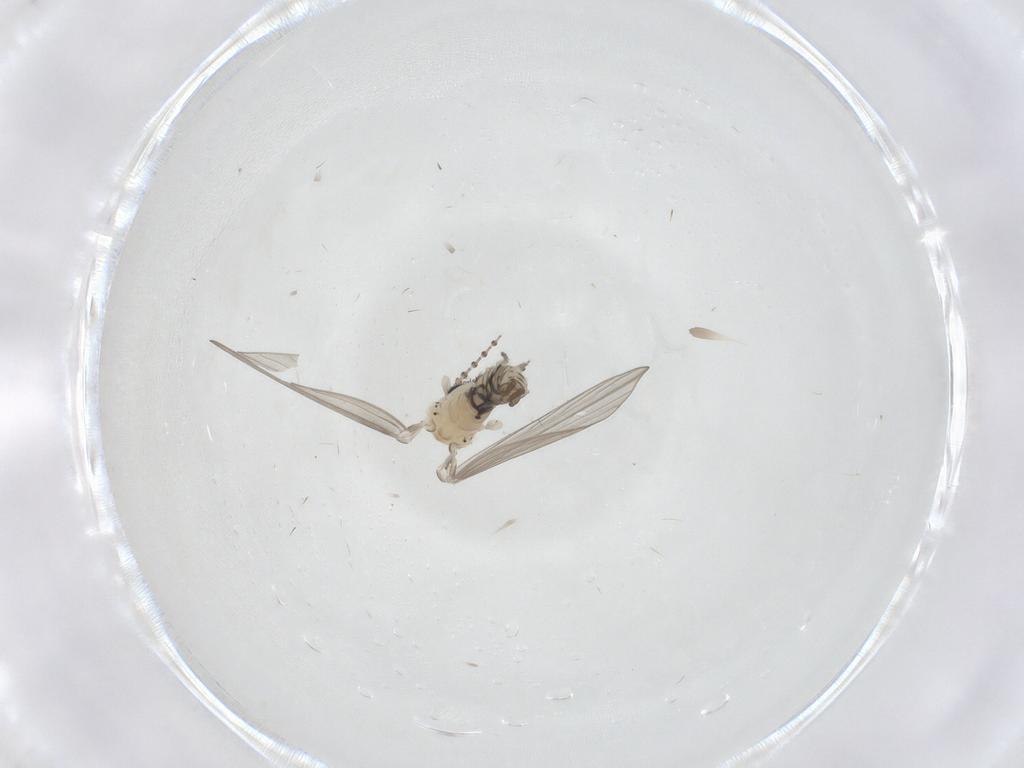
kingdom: Animalia
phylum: Arthropoda
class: Insecta
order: Diptera
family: Psychodidae
